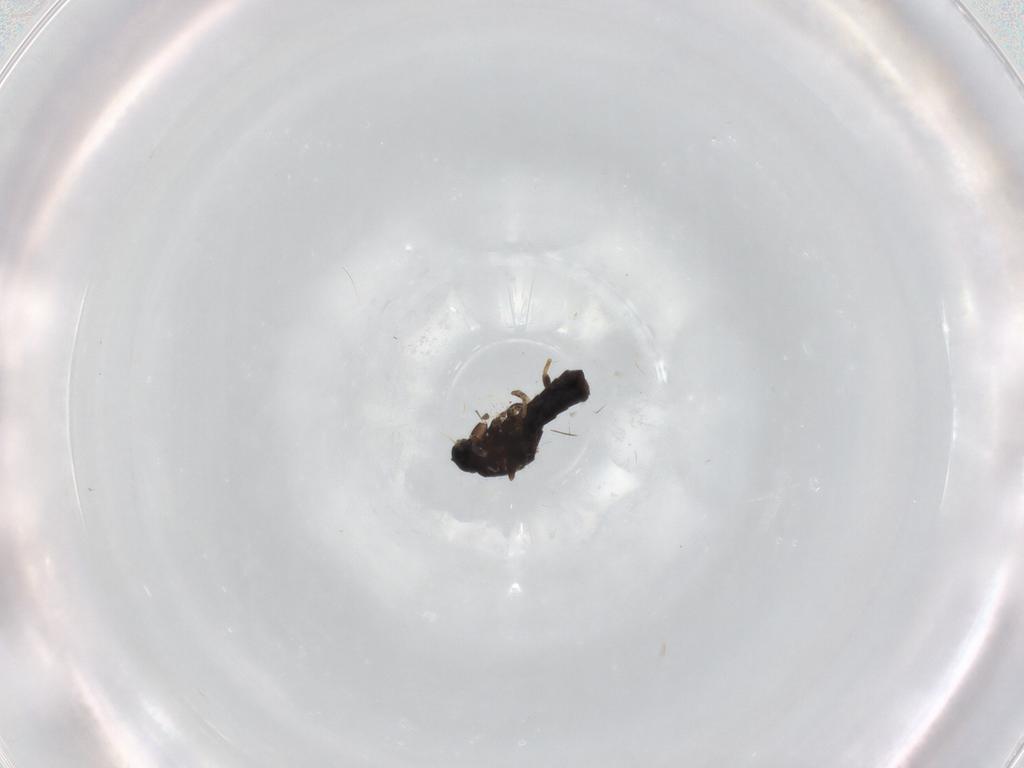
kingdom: Animalia
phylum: Arthropoda
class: Insecta
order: Diptera
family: Scatopsidae
